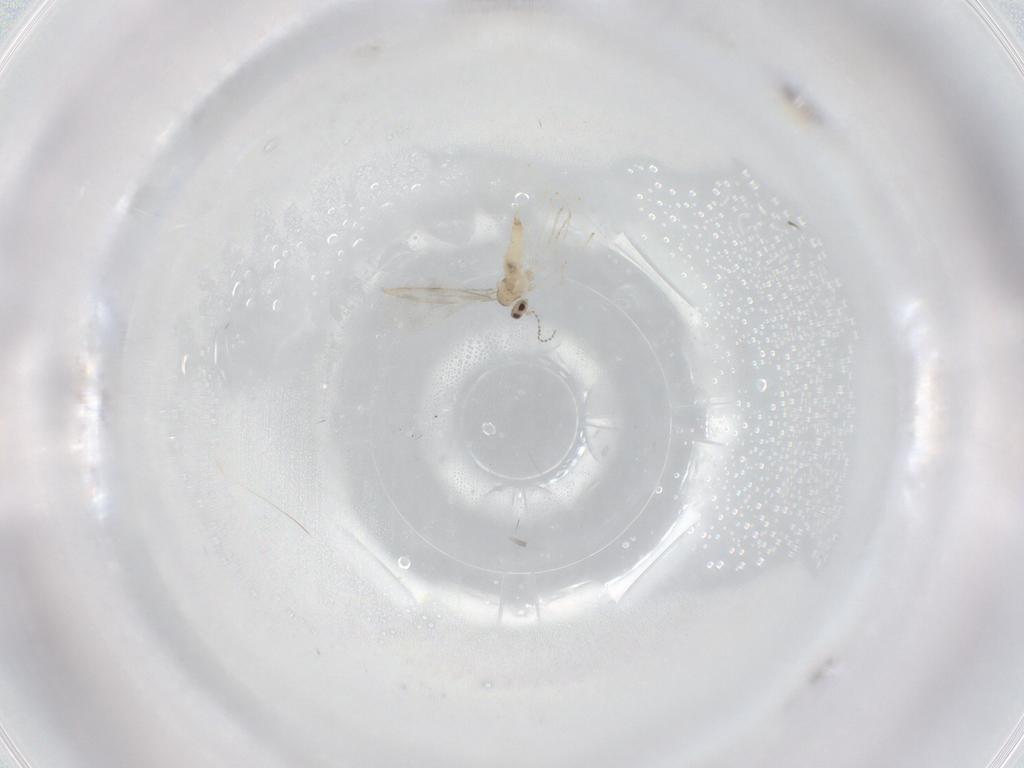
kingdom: Animalia
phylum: Arthropoda
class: Insecta
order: Diptera
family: Cecidomyiidae
